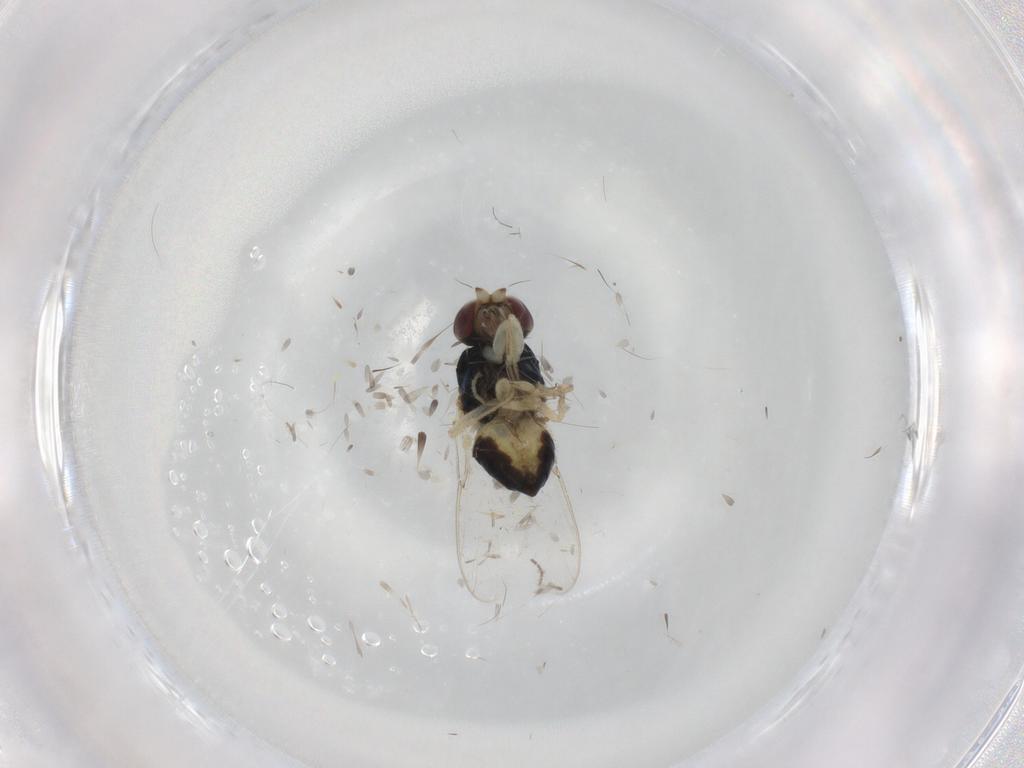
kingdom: Animalia
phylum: Arthropoda
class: Insecta
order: Diptera
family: Chloropidae
